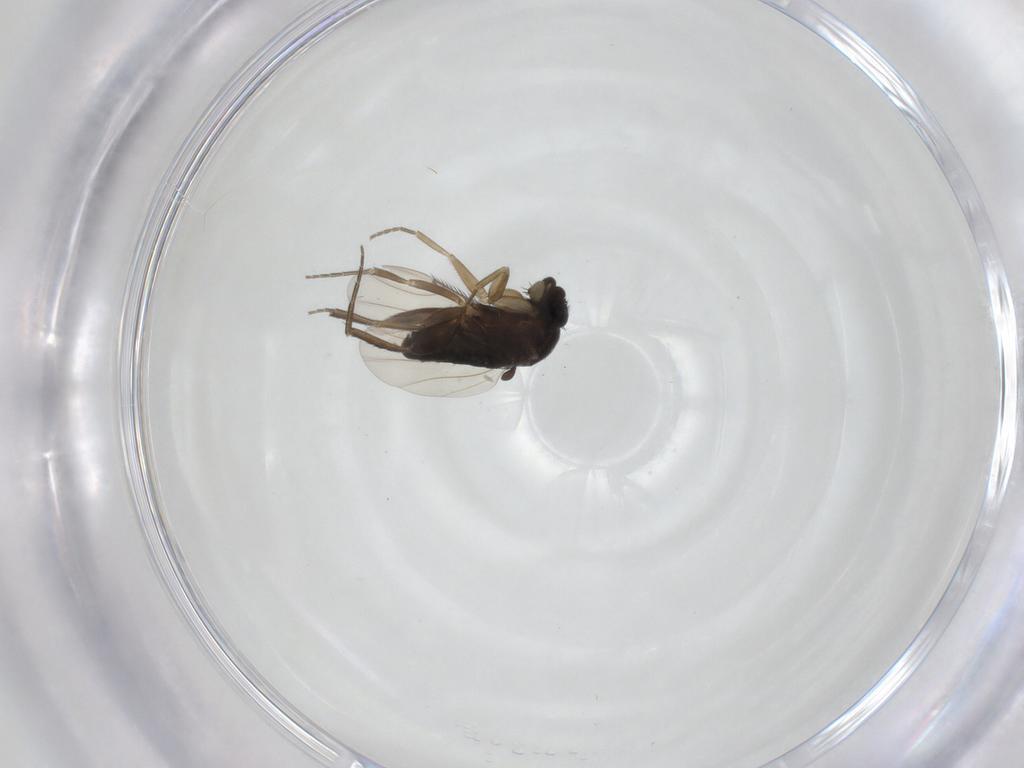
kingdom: Animalia
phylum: Arthropoda
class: Insecta
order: Diptera
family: Phoridae
